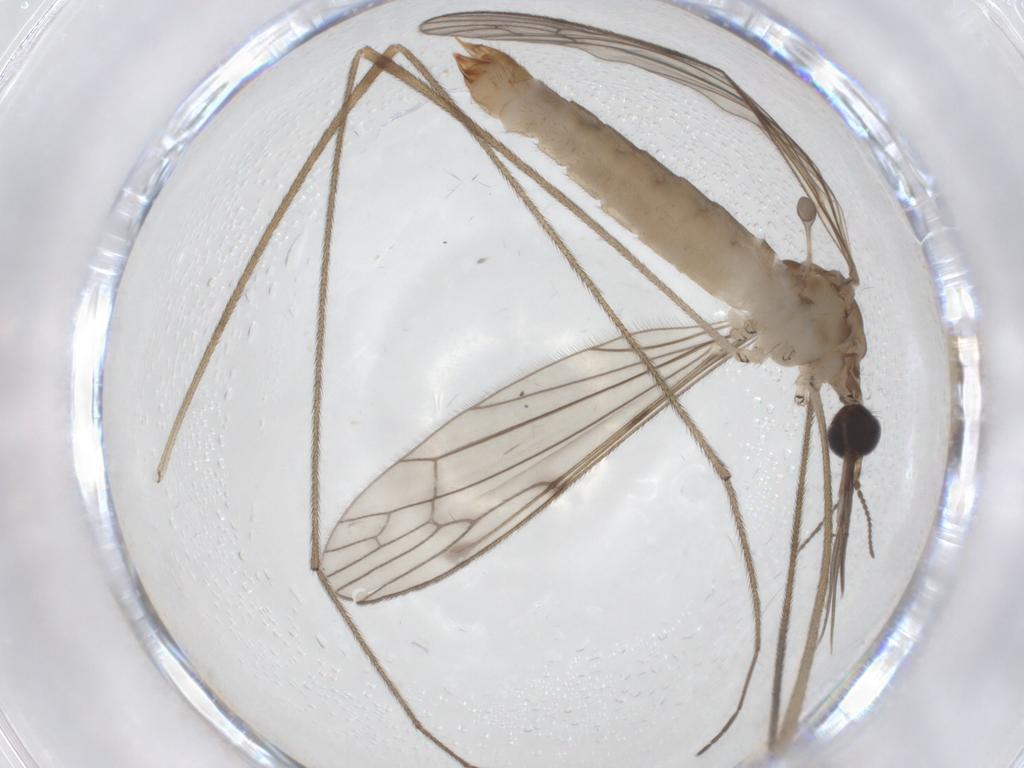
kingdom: Animalia
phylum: Arthropoda
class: Insecta
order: Diptera
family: Limoniidae
